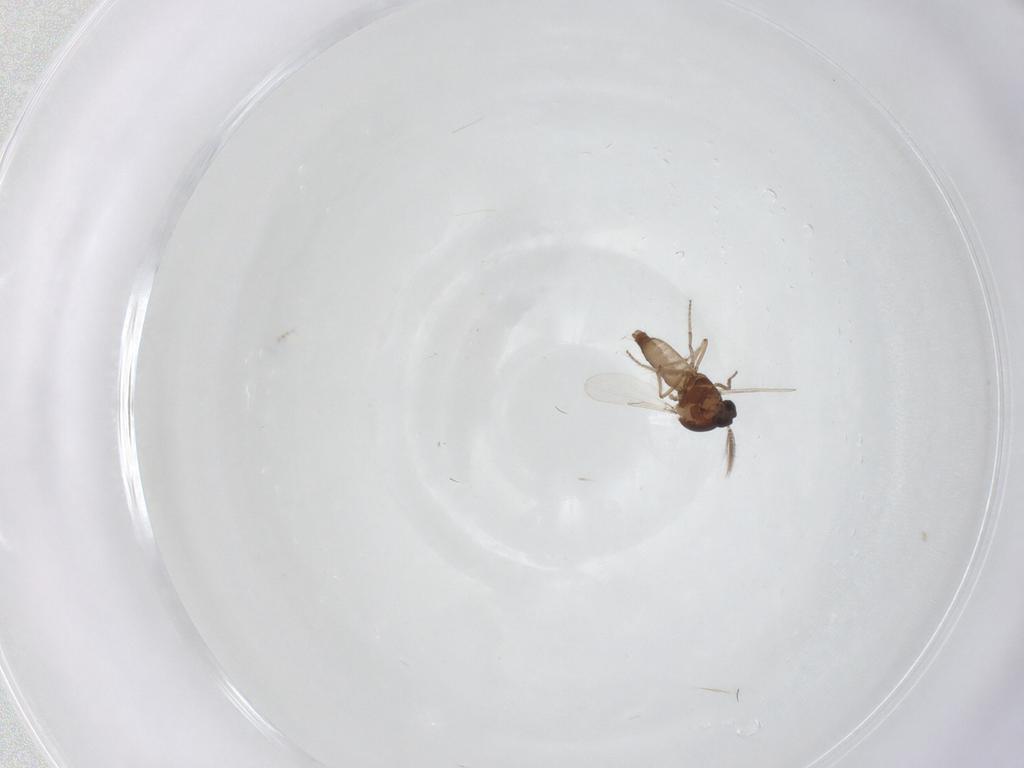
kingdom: Animalia
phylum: Arthropoda
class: Insecta
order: Diptera
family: Ceratopogonidae
